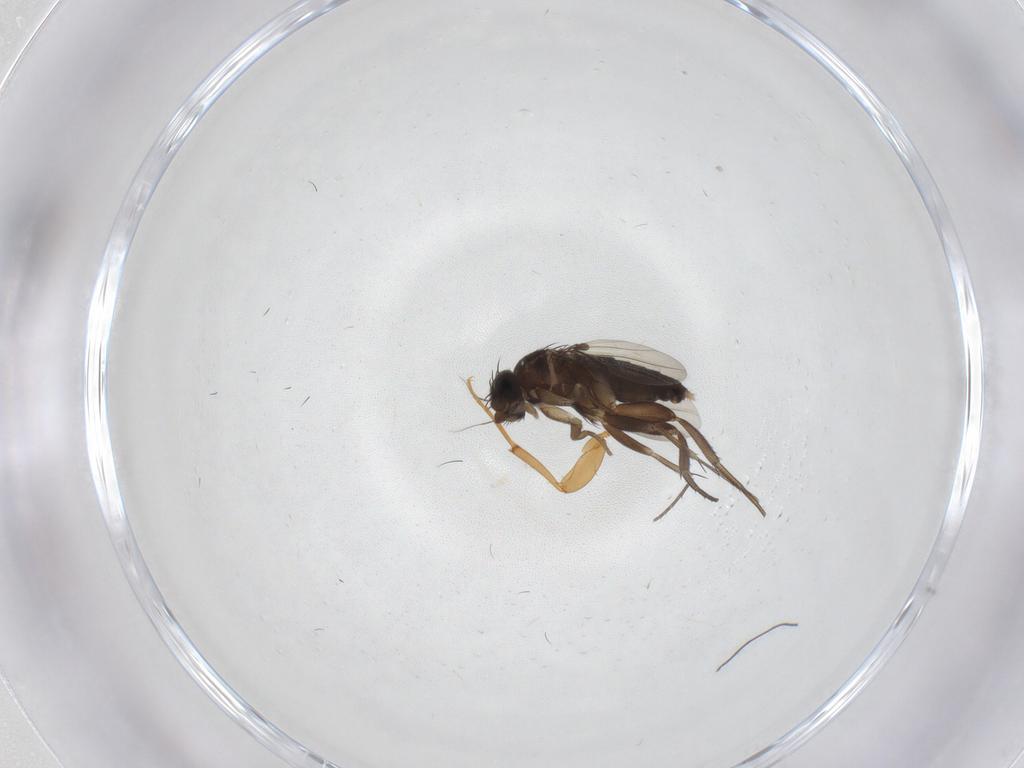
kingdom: Animalia
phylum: Arthropoda
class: Insecta
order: Diptera
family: Phoridae
